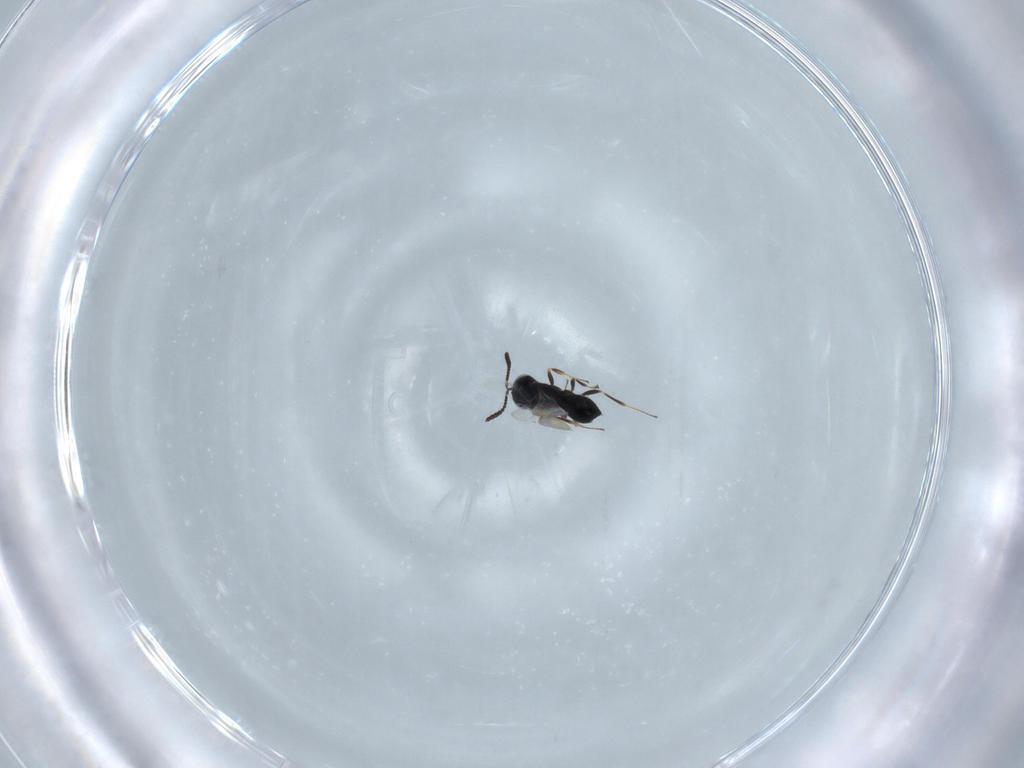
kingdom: Animalia
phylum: Arthropoda
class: Insecta
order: Hymenoptera
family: Scelionidae
